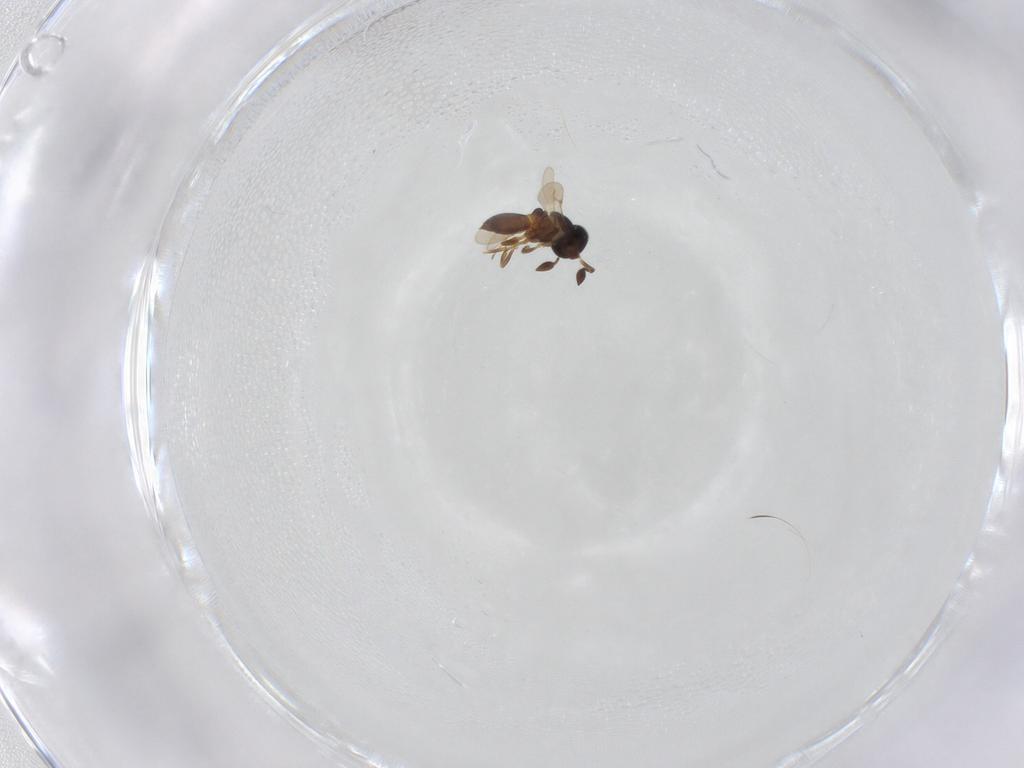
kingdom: Animalia
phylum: Arthropoda
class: Insecta
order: Hymenoptera
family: Scelionidae
